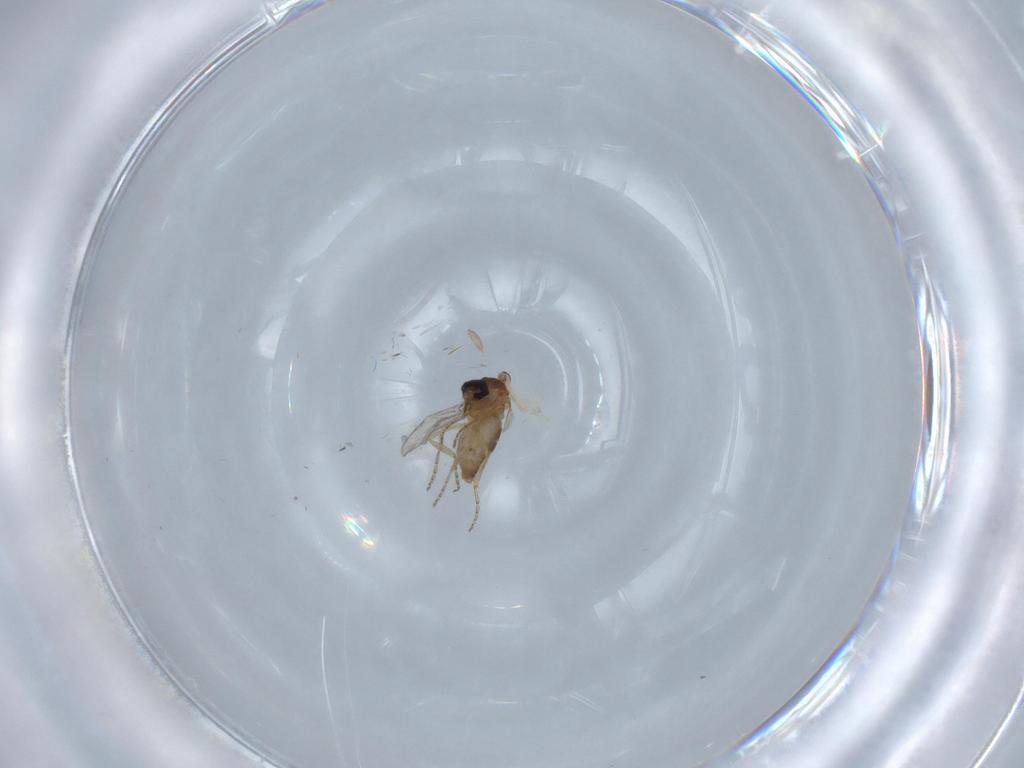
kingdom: Animalia
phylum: Arthropoda
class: Insecta
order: Diptera
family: Culicidae
